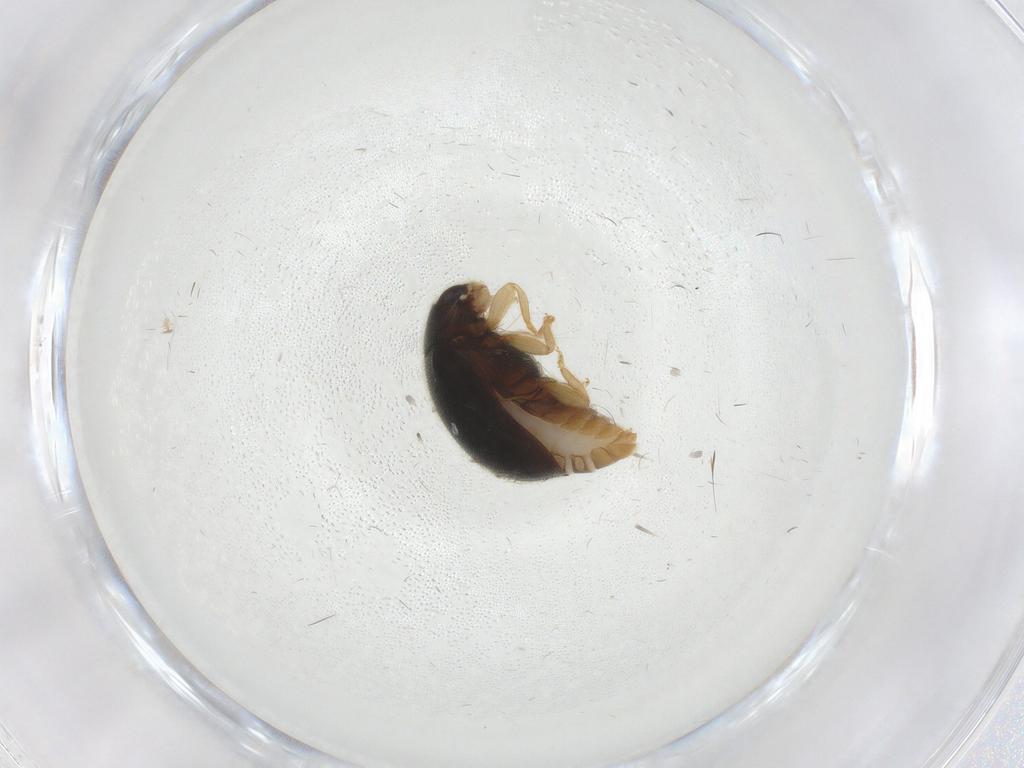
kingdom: Animalia
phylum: Arthropoda
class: Insecta
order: Coleoptera
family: Coccinellidae
